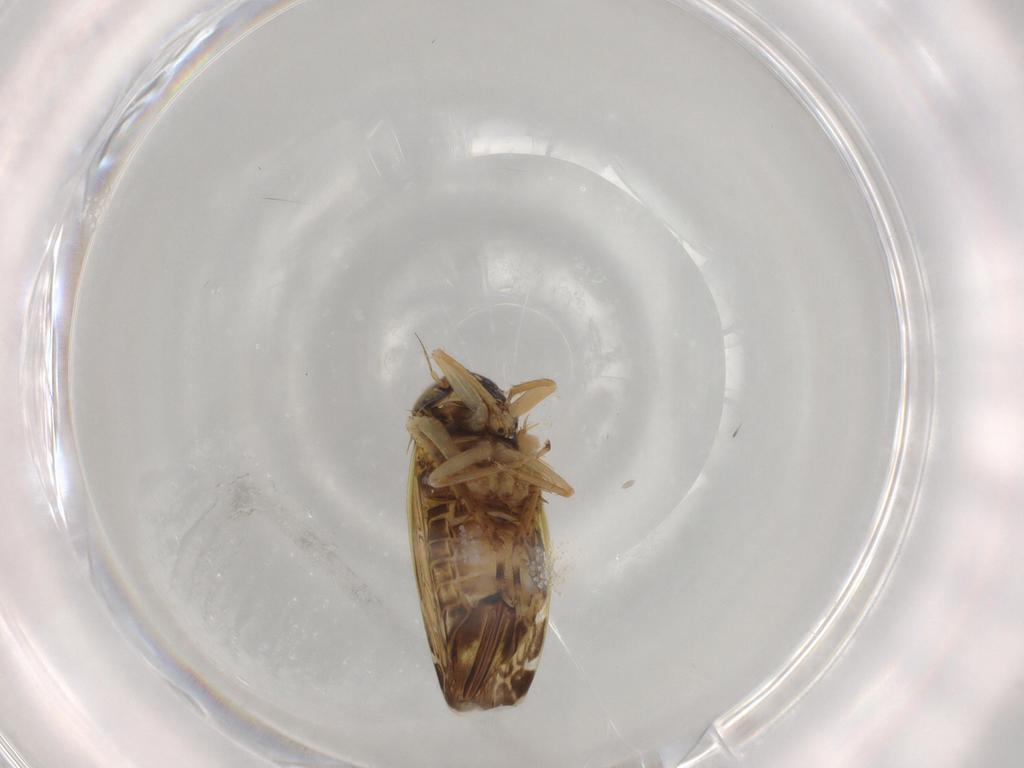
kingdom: Animalia
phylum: Arthropoda
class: Insecta
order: Hemiptera
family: Cicadellidae
